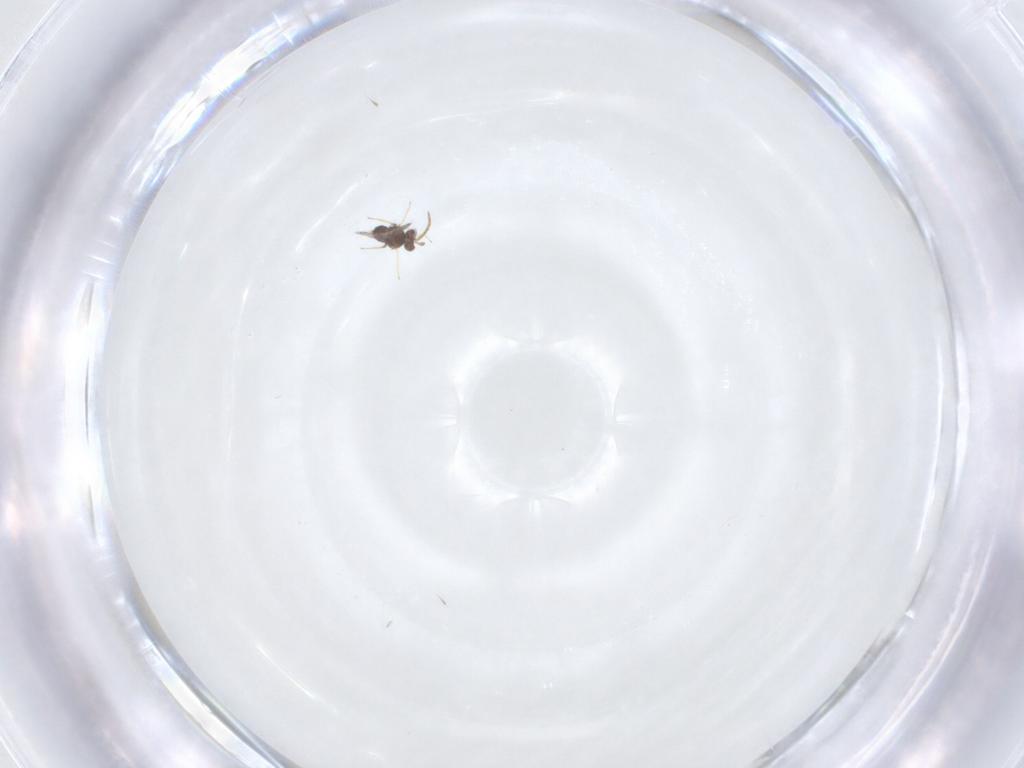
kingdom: Animalia
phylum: Arthropoda
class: Insecta
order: Hymenoptera
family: Aphelinidae
